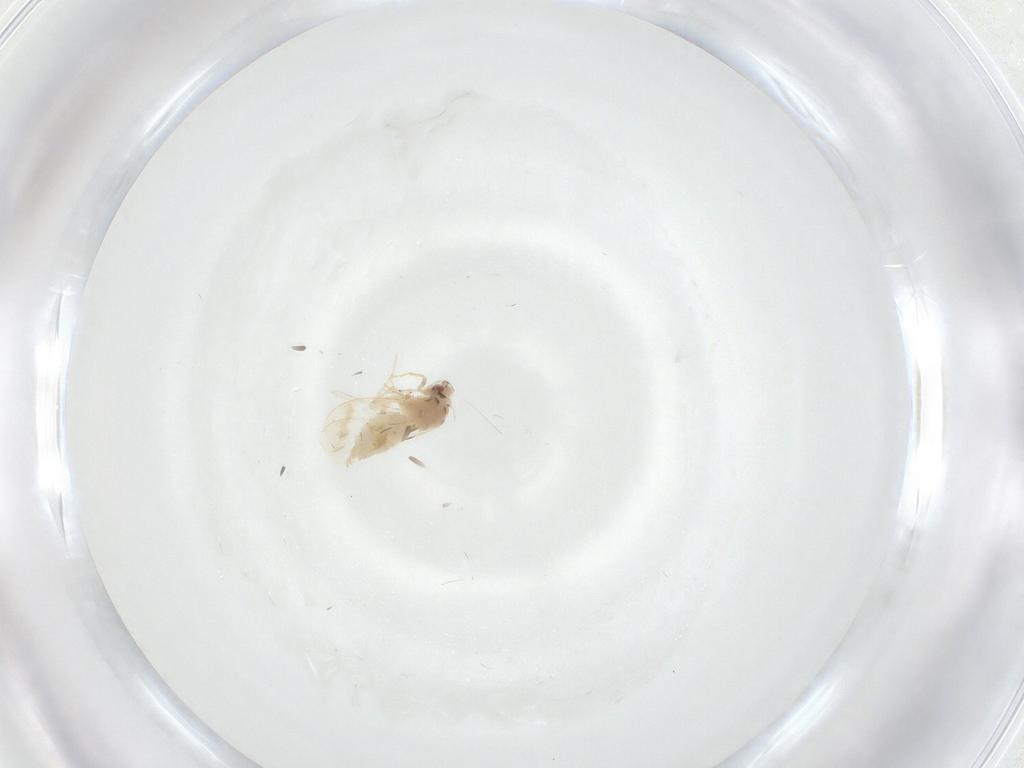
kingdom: Animalia
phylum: Arthropoda
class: Insecta
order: Hemiptera
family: Aleyrodidae
